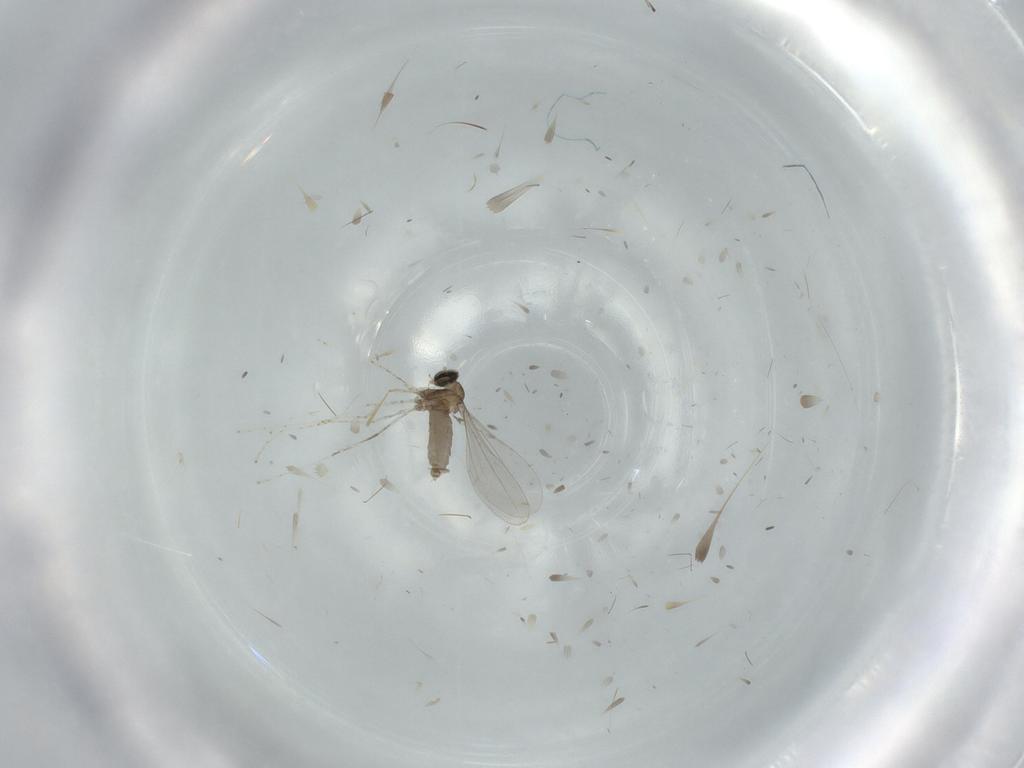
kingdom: Animalia
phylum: Arthropoda
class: Insecta
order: Diptera
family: Cecidomyiidae
